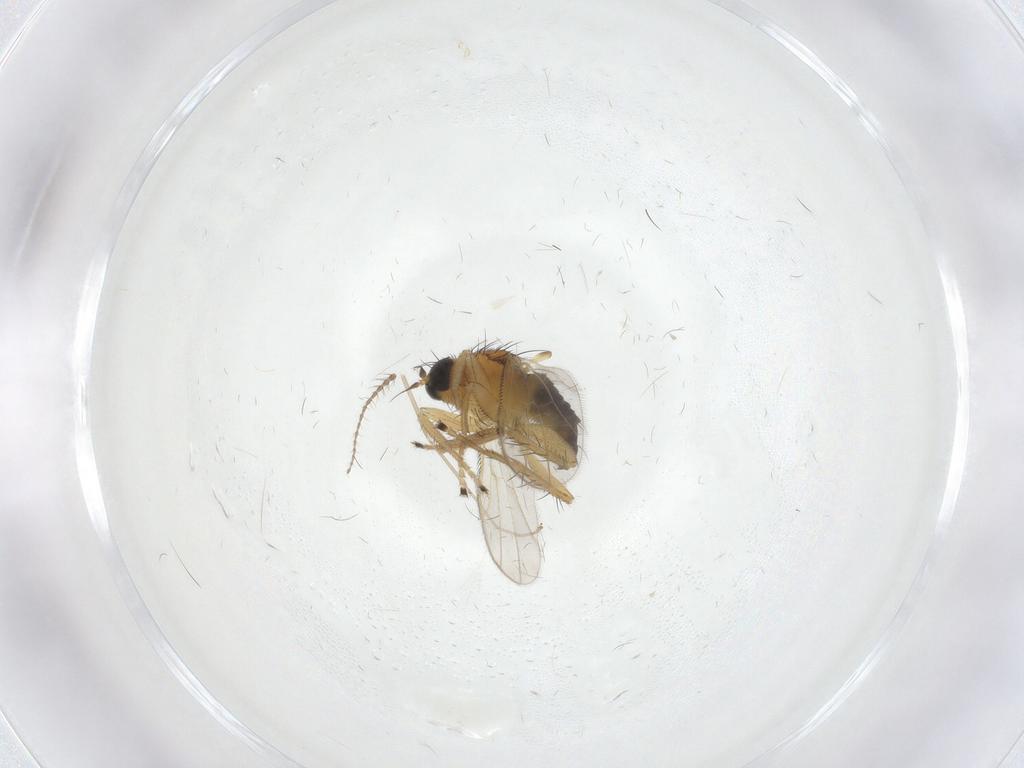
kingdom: Animalia
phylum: Arthropoda
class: Insecta
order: Diptera
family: Hybotidae
